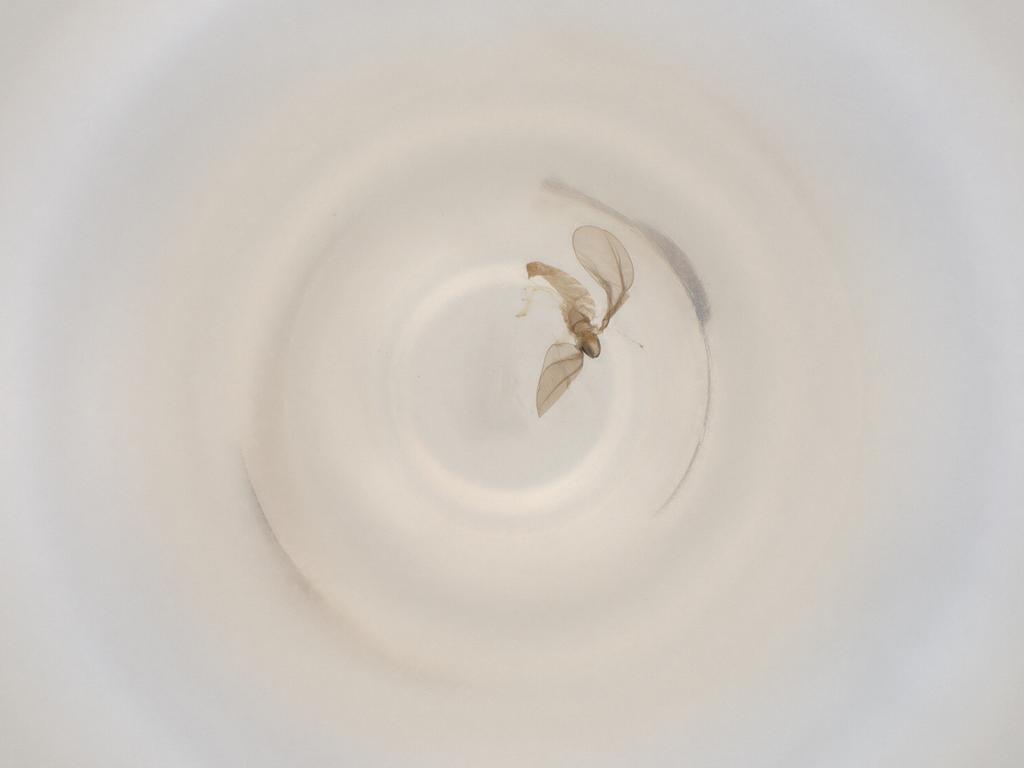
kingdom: Animalia
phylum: Arthropoda
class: Insecta
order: Diptera
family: Cecidomyiidae
